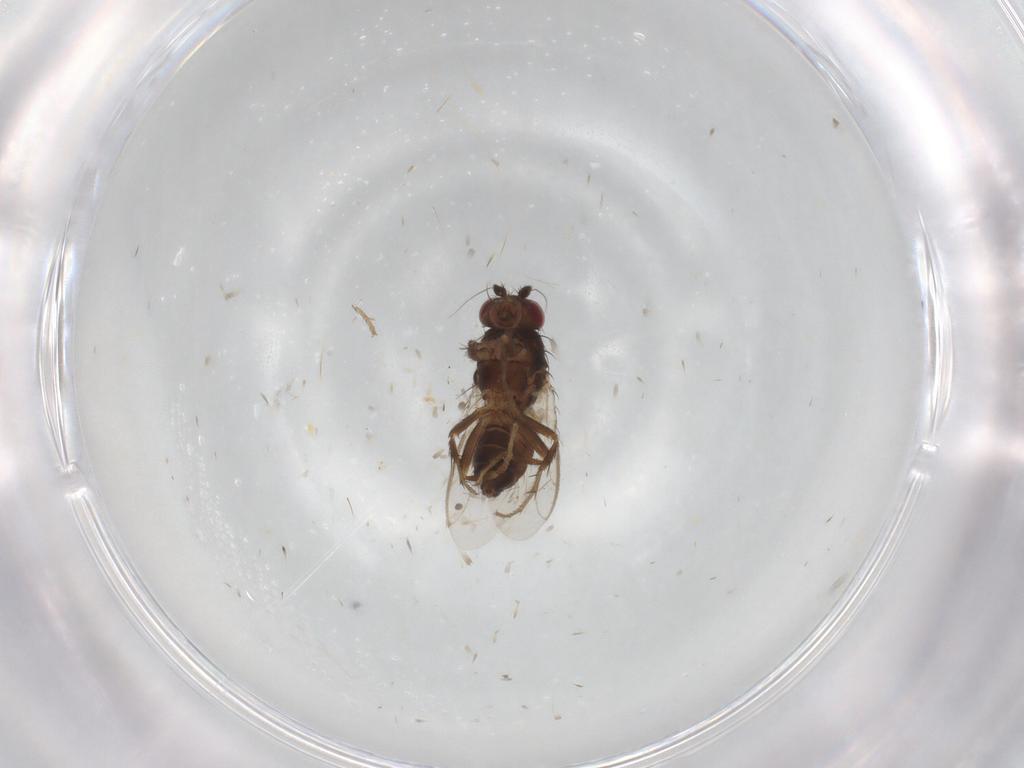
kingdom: Animalia
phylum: Arthropoda
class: Insecta
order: Diptera
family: Sphaeroceridae
